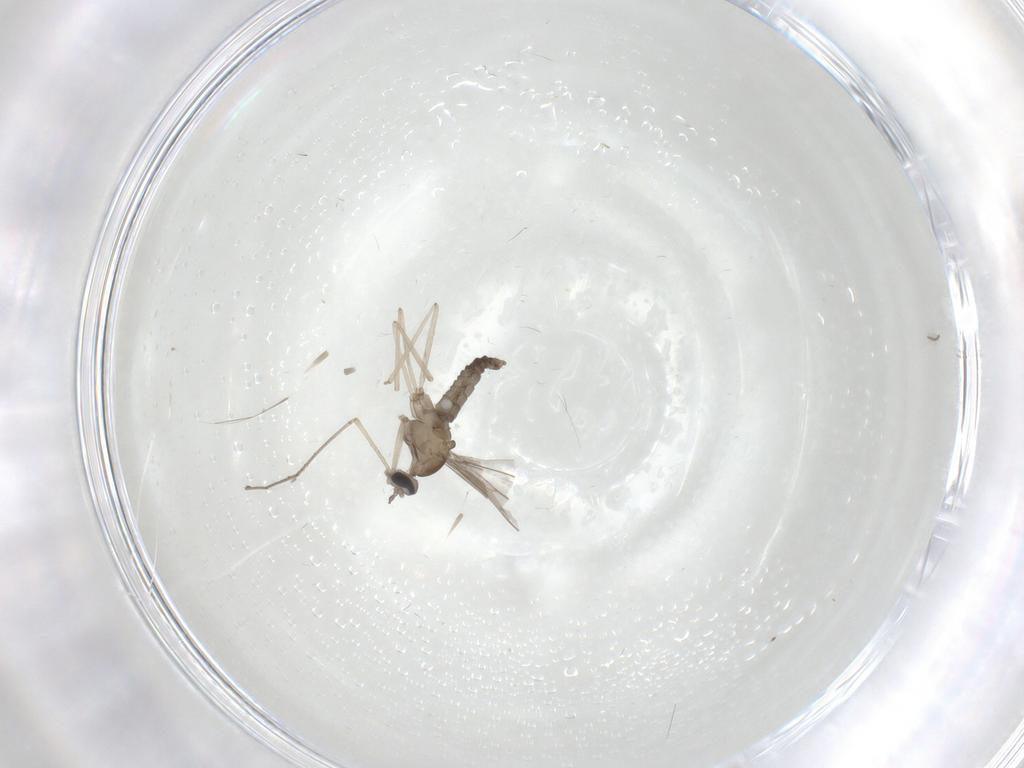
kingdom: Animalia
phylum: Arthropoda
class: Insecta
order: Diptera
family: Ceratopogonidae
